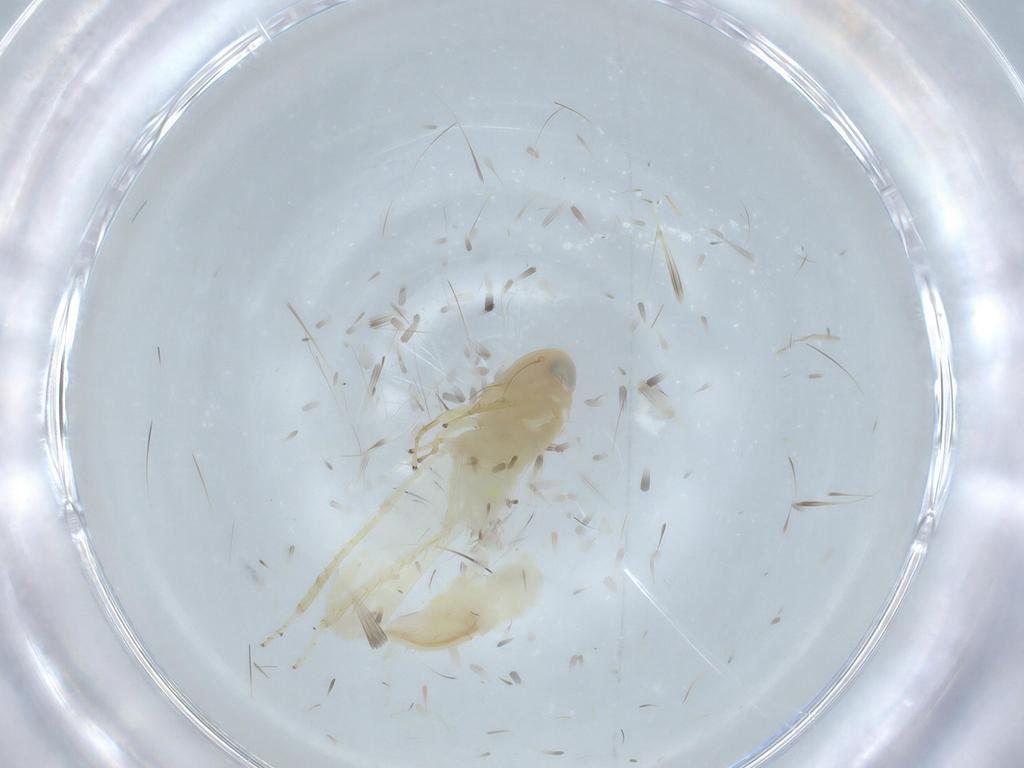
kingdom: Animalia
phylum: Arthropoda
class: Insecta
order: Hemiptera
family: Cicadellidae
